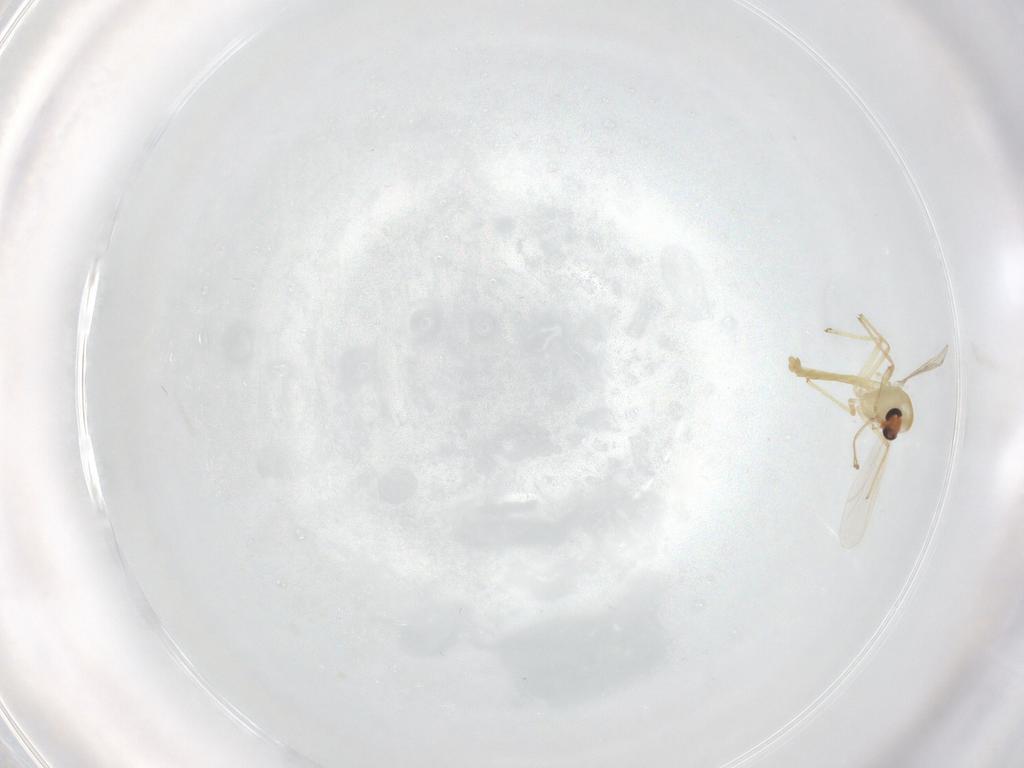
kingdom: Animalia
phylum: Arthropoda
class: Insecta
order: Diptera
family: Chironomidae
